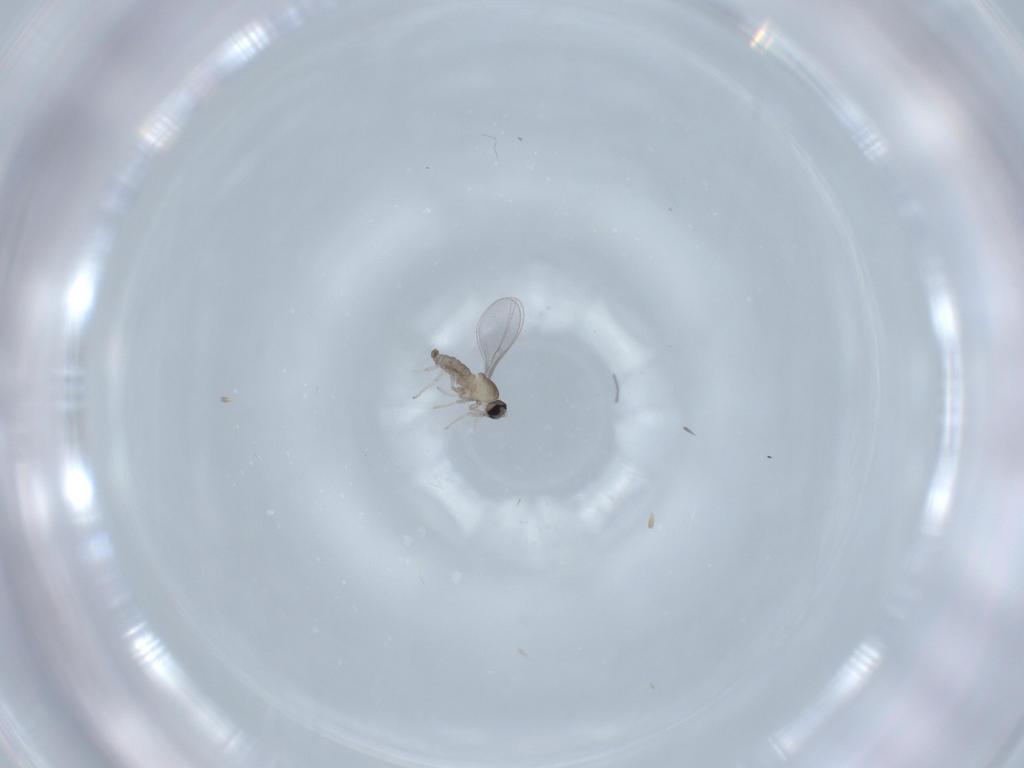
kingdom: Animalia
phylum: Arthropoda
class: Insecta
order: Diptera
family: Cecidomyiidae
